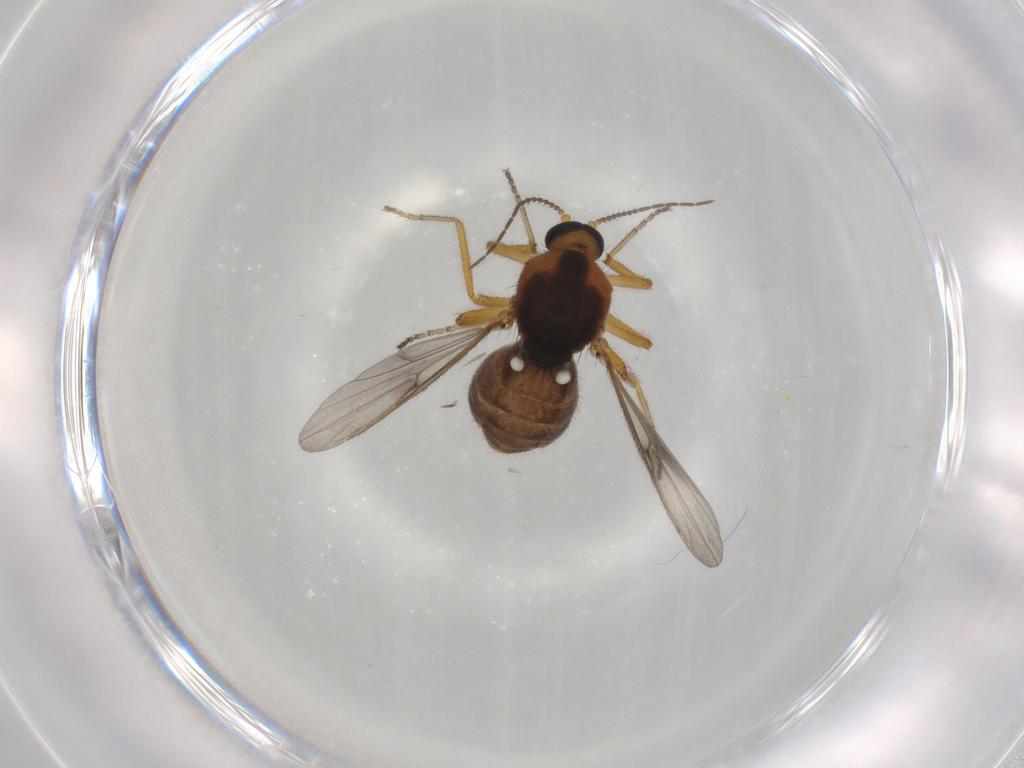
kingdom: Animalia
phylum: Arthropoda
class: Insecta
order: Diptera
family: Ceratopogonidae
